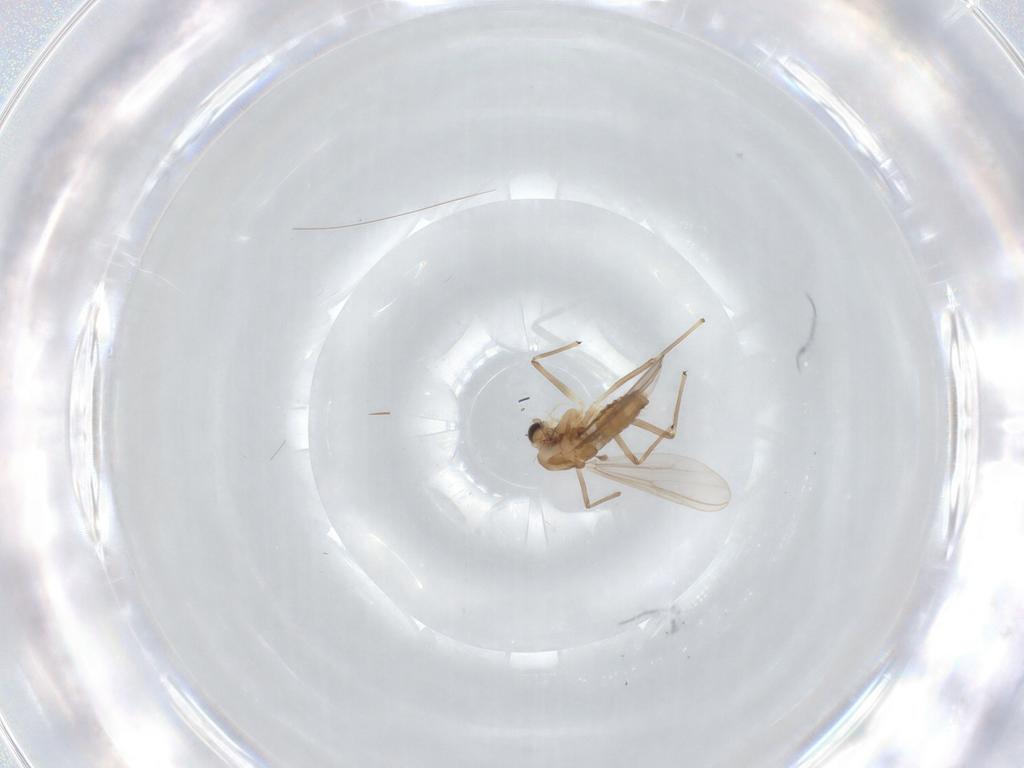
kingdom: Animalia
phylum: Arthropoda
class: Insecta
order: Diptera
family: Chironomidae
